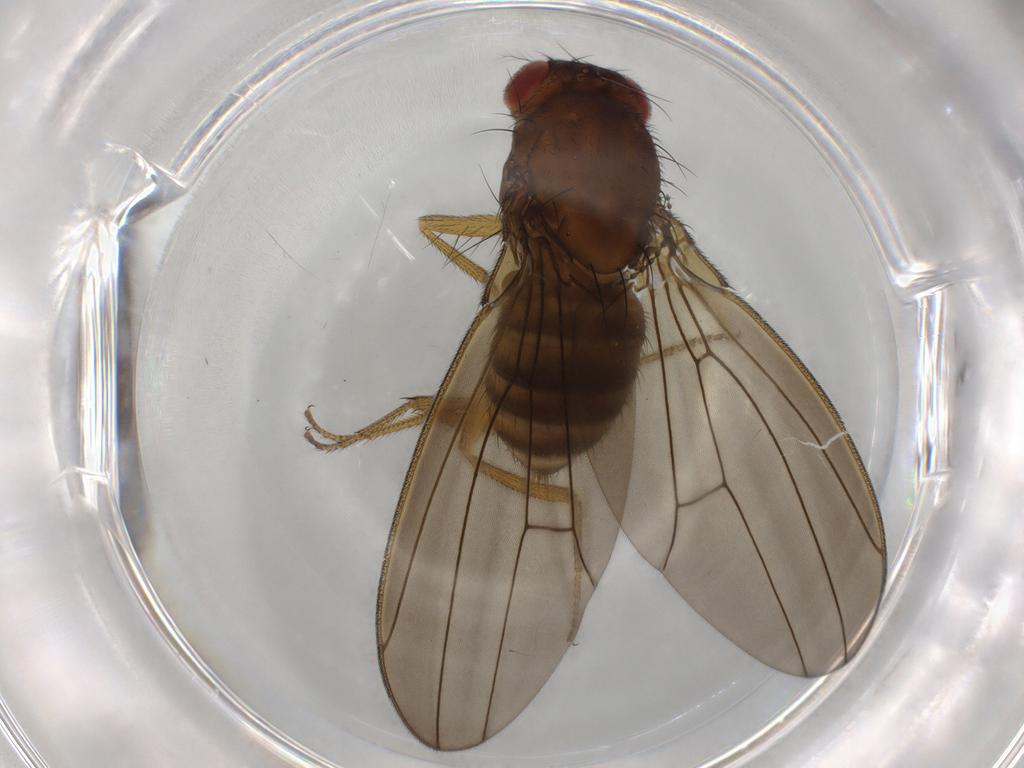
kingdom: Animalia
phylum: Arthropoda
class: Insecta
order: Diptera
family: Drosophilidae
